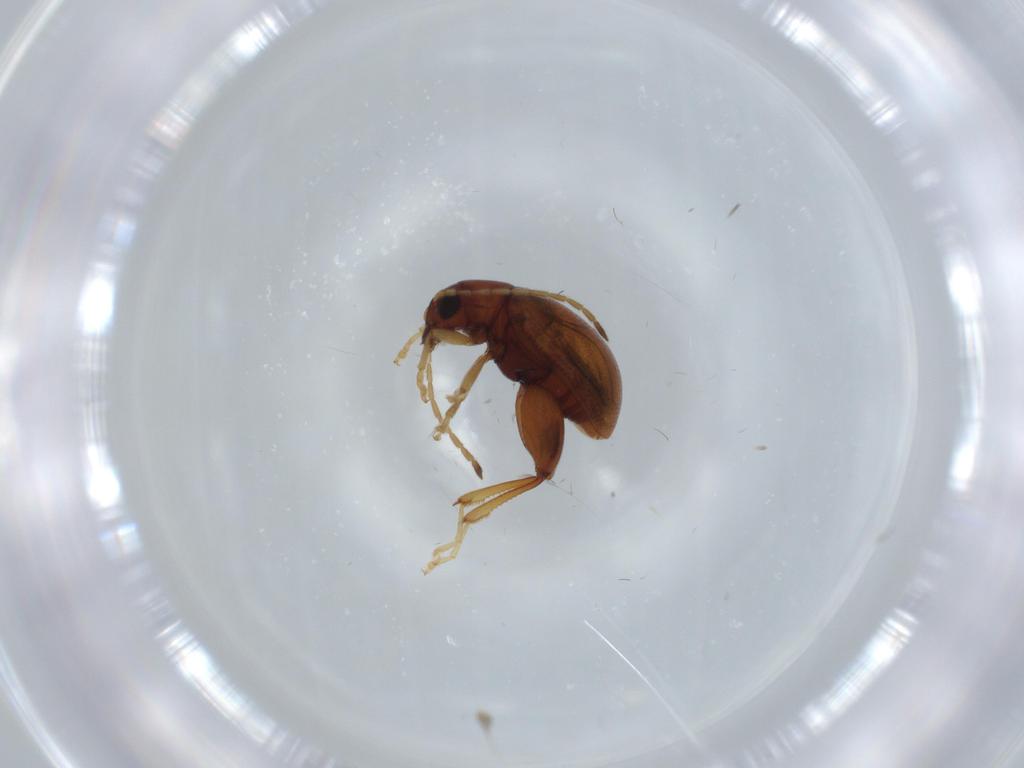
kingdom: Animalia
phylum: Arthropoda
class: Insecta
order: Coleoptera
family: Chrysomelidae
